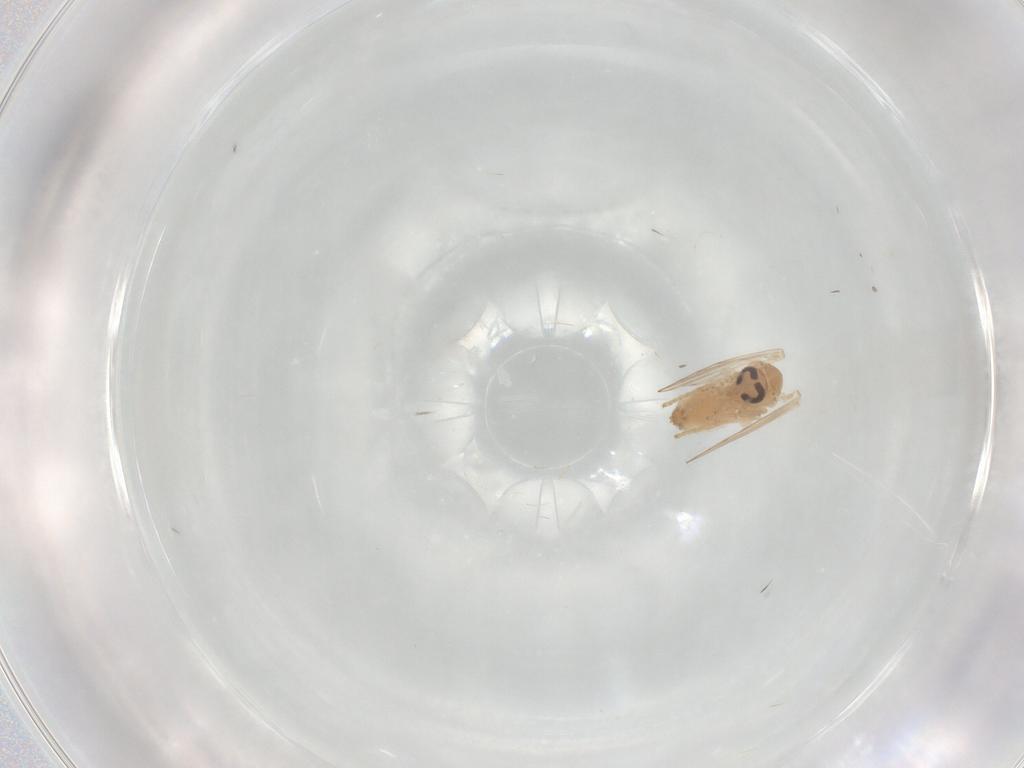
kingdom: Animalia
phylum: Arthropoda
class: Insecta
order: Diptera
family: Psychodidae
